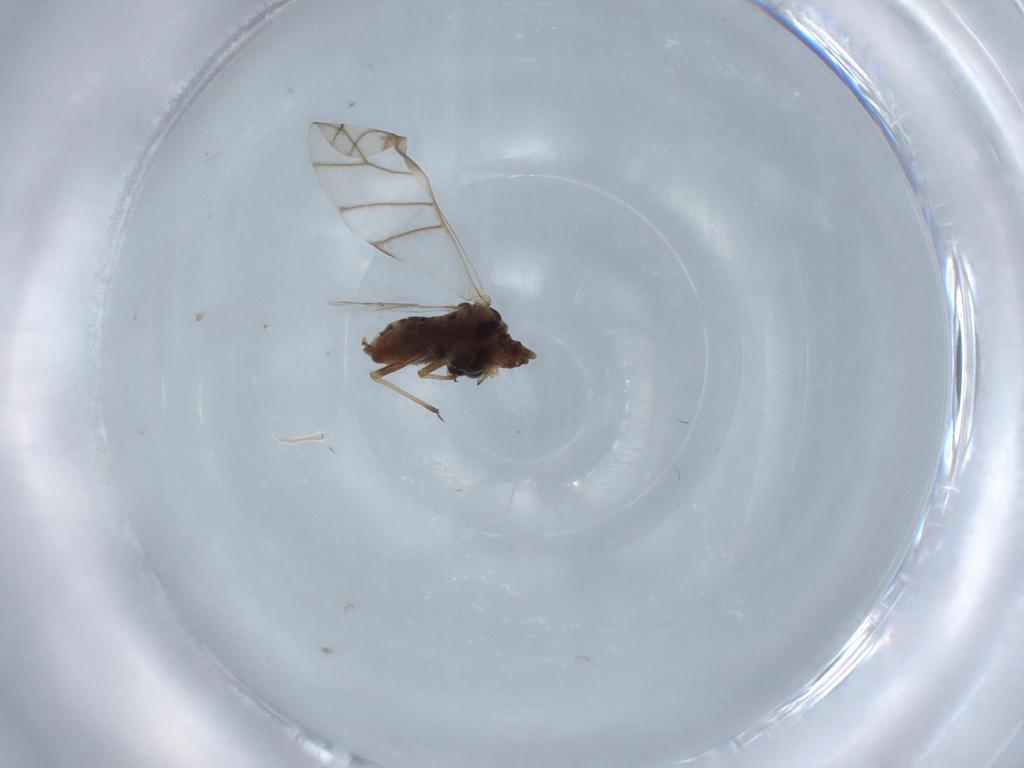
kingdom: Animalia
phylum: Arthropoda
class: Insecta
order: Hemiptera
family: Aphididae
